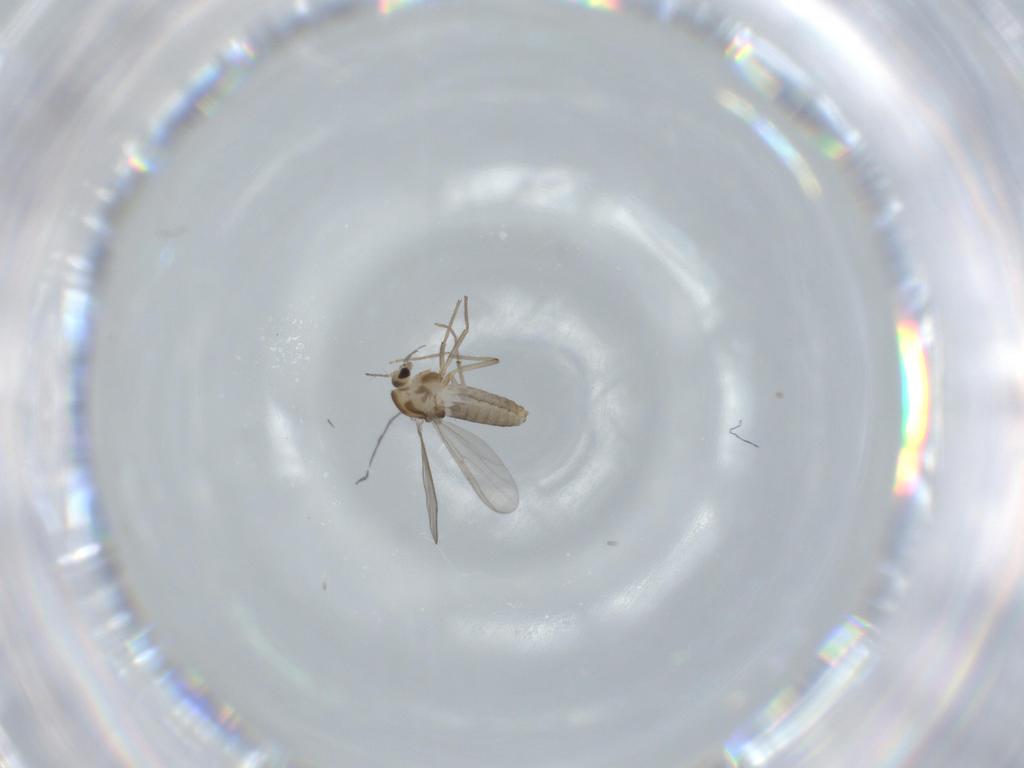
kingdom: Animalia
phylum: Arthropoda
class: Insecta
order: Diptera
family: Chironomidae
